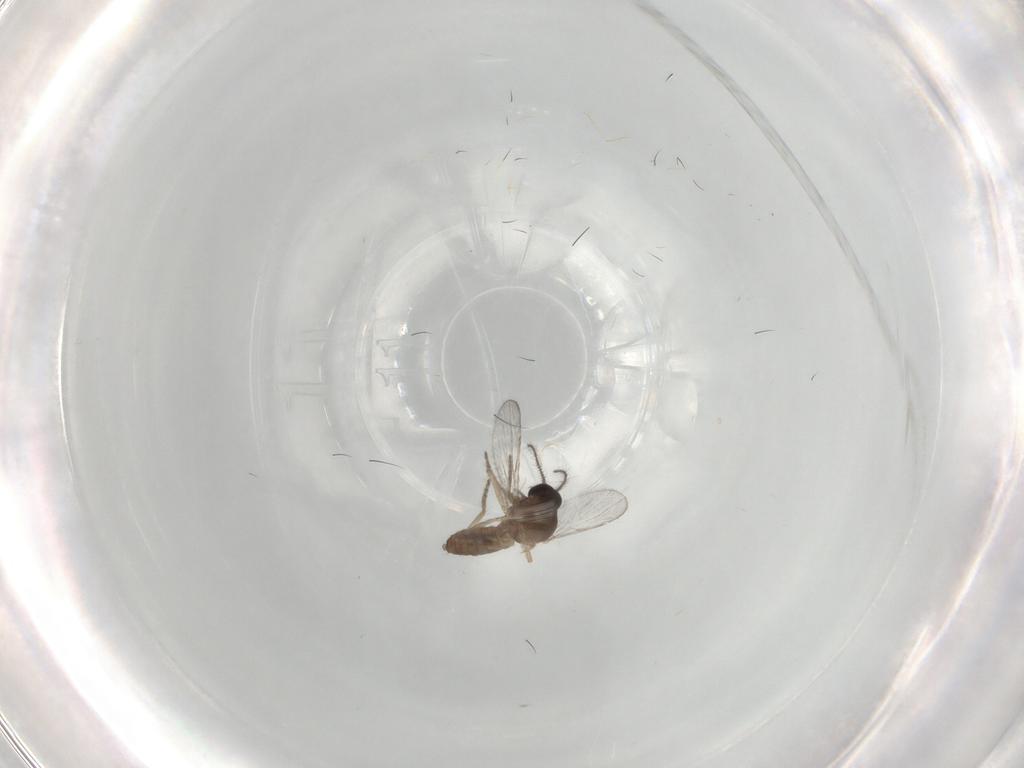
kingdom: Animalia
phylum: Arthropoda
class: Insecta
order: Diptera
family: Dolichopodidae
